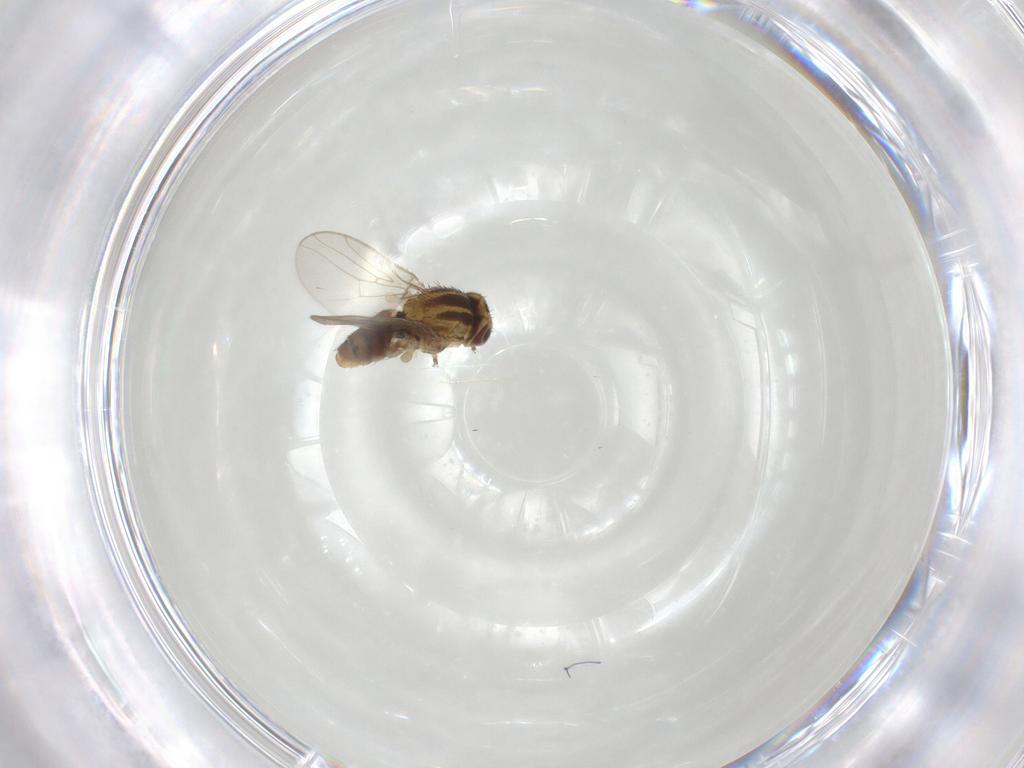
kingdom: Animalia
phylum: Arthropoda
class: Insecta
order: Diptera
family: Chloropidae
